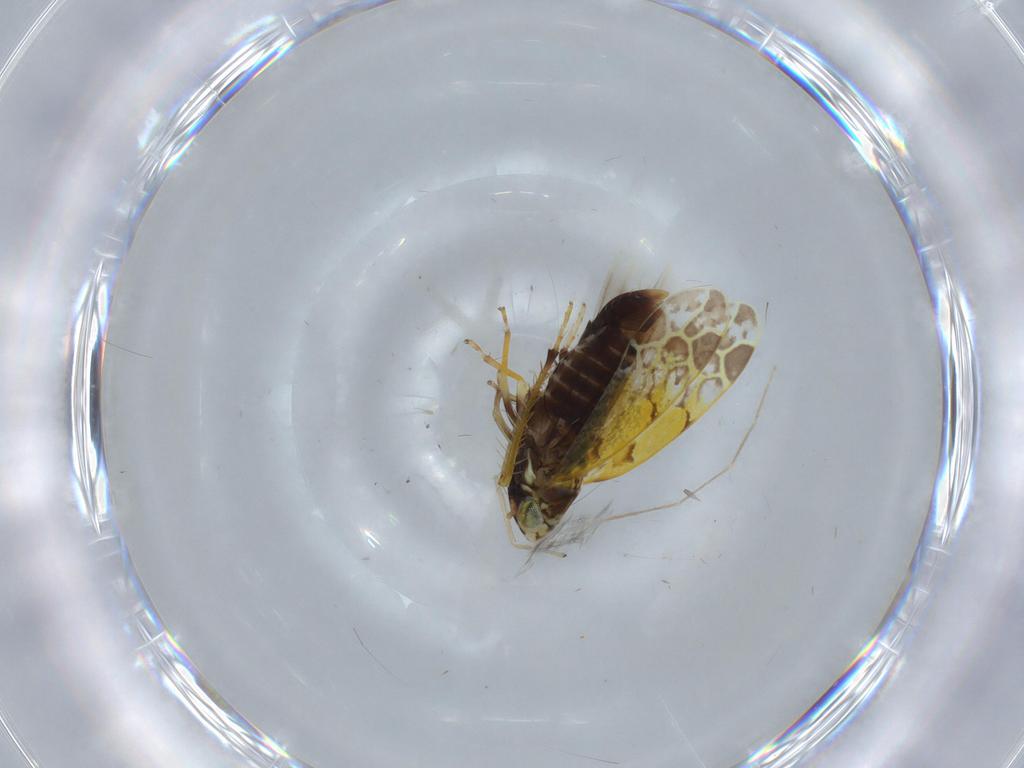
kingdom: Animalia
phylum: Arthropoda
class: Insecta
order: Hemiptera
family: Cicadellidae
